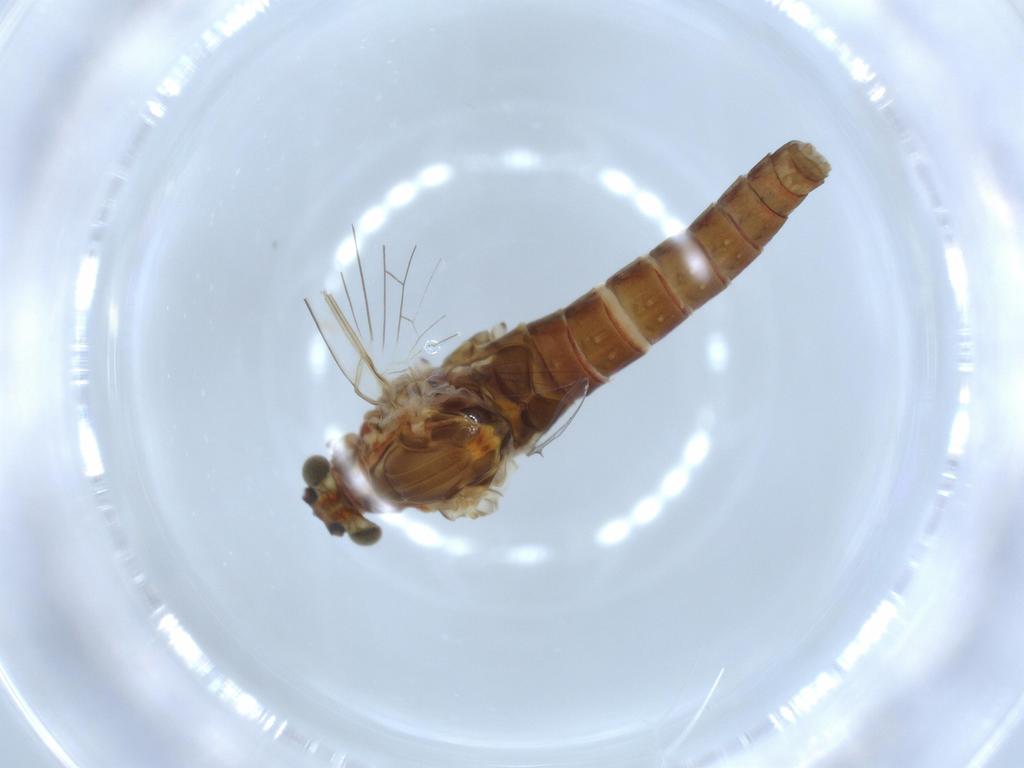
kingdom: Animalia
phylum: Arthropoda
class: Insecta
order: Ephemeroptera
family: Baetidae
